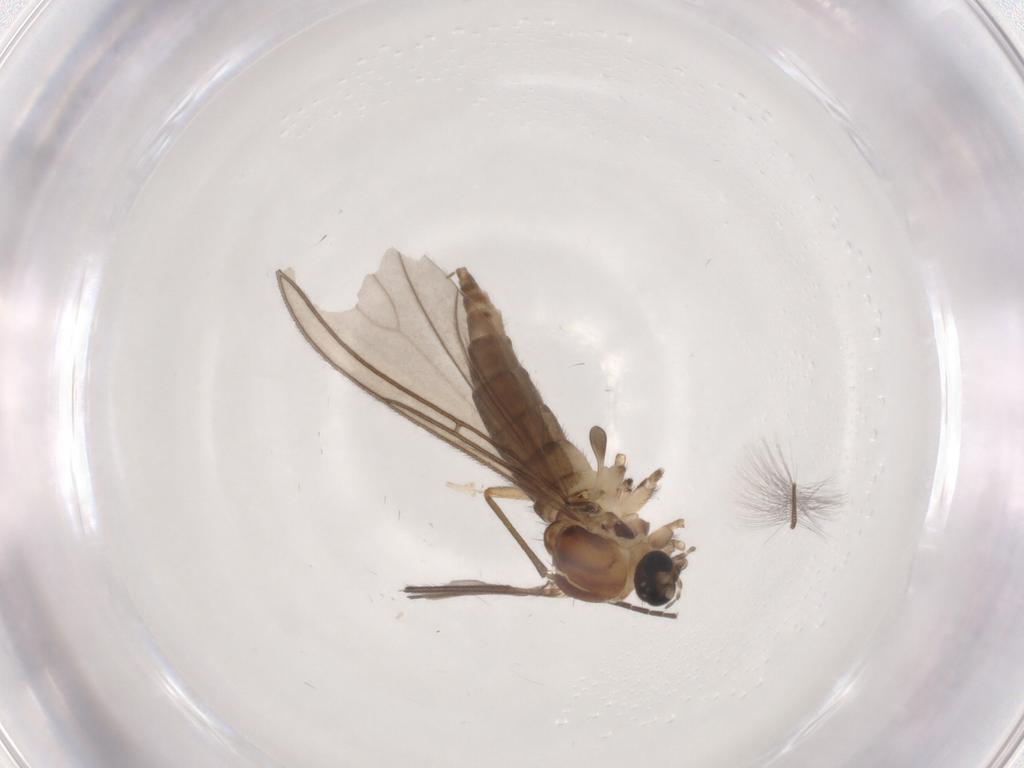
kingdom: Animalia
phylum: Arthropoda
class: Insecta
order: Diptera
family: Sciaridae
